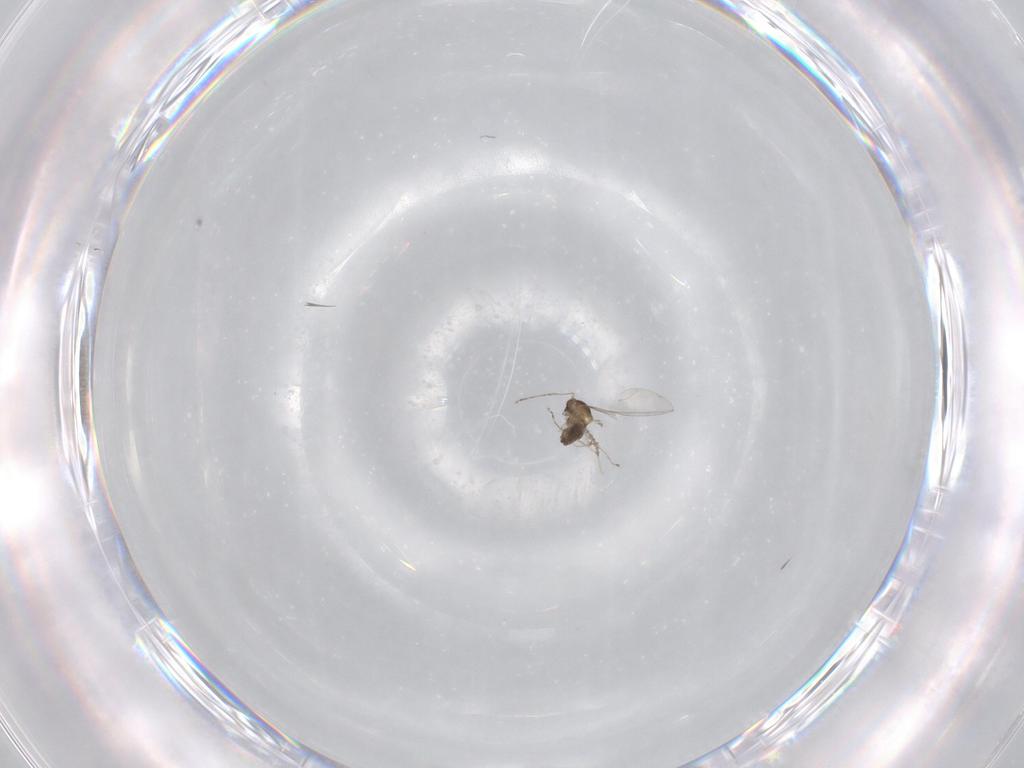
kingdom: Animalia
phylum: Arthropoda
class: Insecta
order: Diptera
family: Cecidomyiidae
